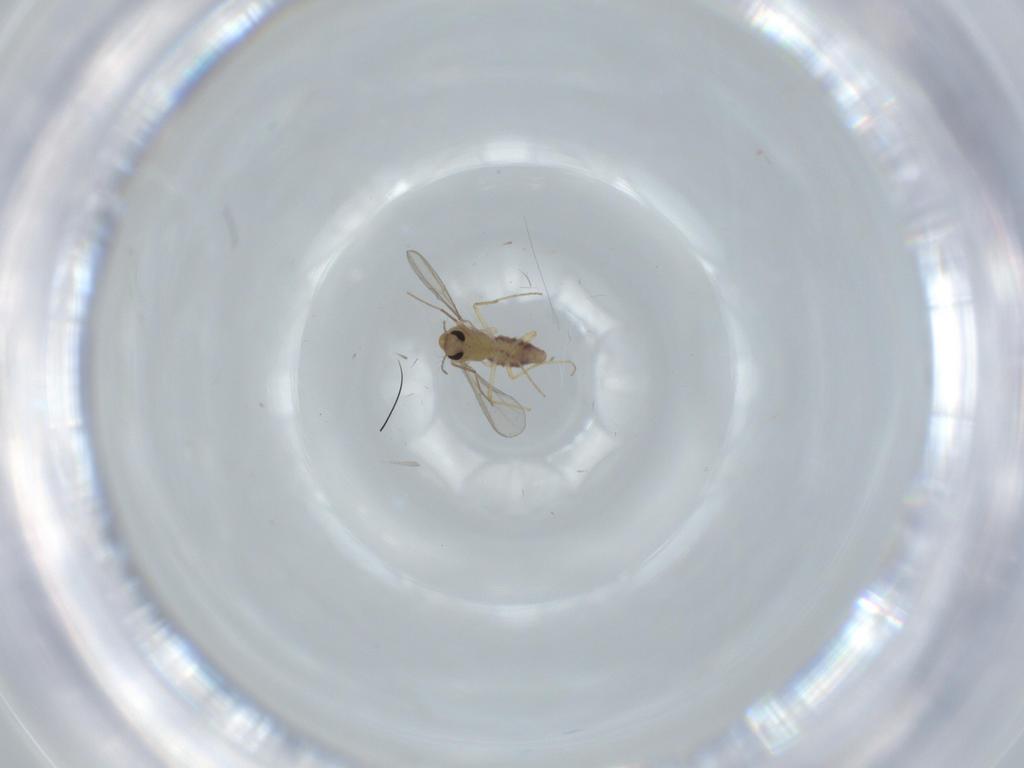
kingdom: Animalia
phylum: Arthropoda
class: Insecta
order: Diptera
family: Chironomidae
